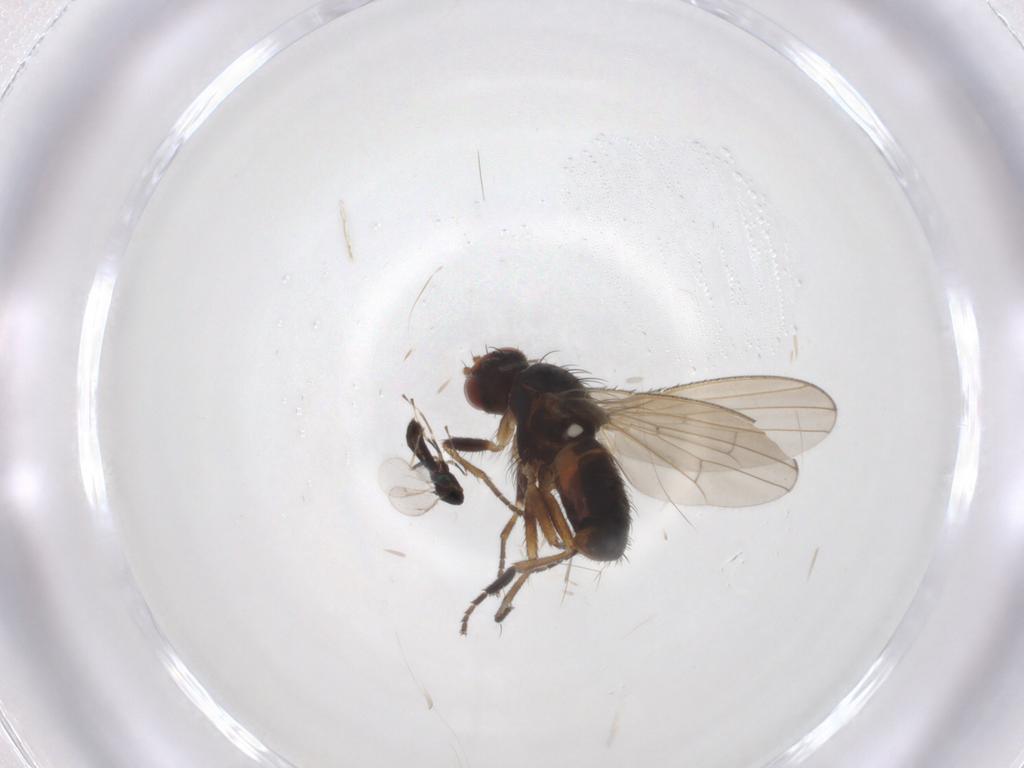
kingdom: Animalia
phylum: Arthropoda
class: Insecta
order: Diptera
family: Heleomyzidae
